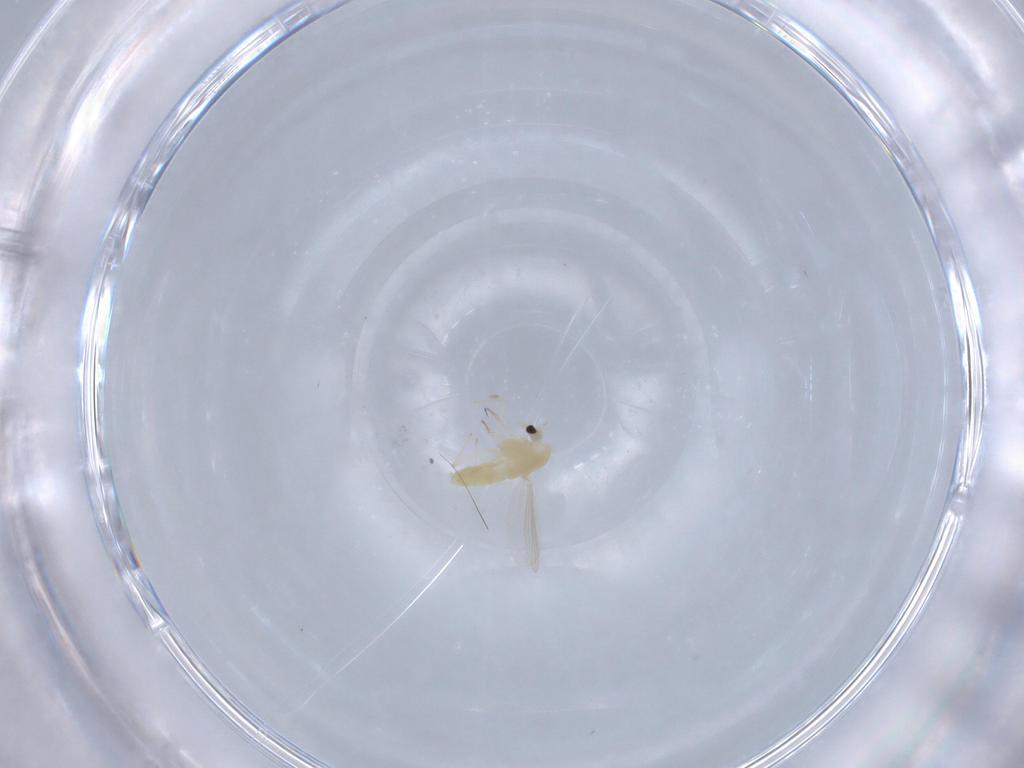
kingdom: Animalia
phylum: Arthropoda
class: Insecta
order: Diptera
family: Chironomidae
